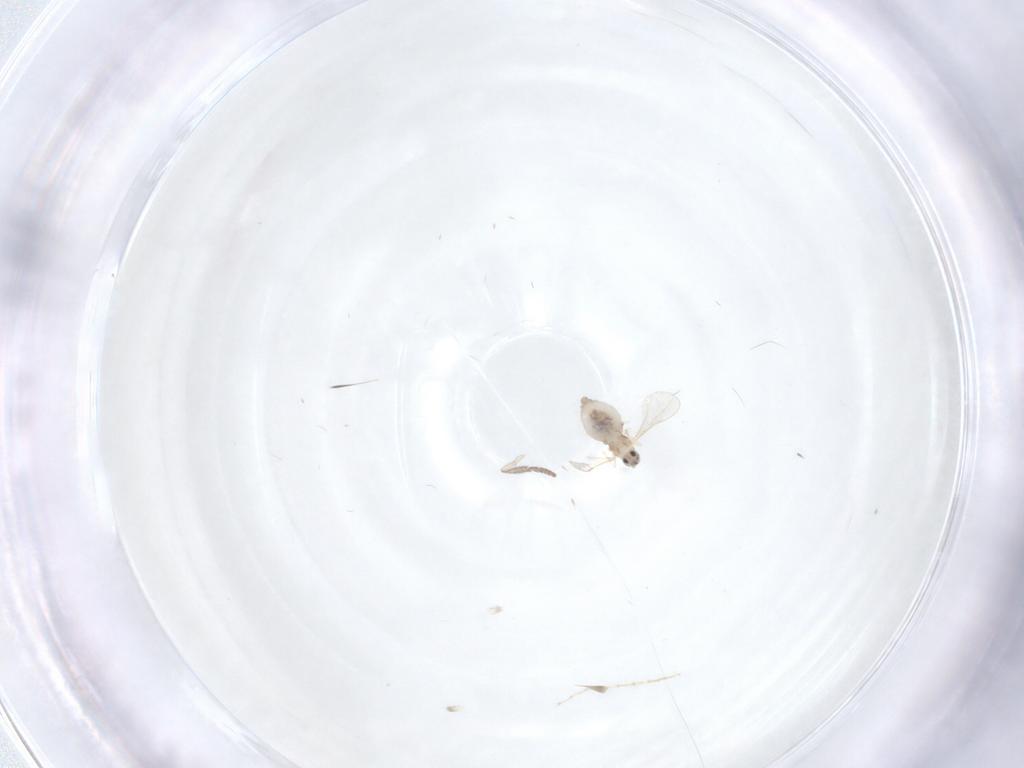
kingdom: Animalia
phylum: Arthropoda
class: Insecta
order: Diptera
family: Cecidomyiidae
